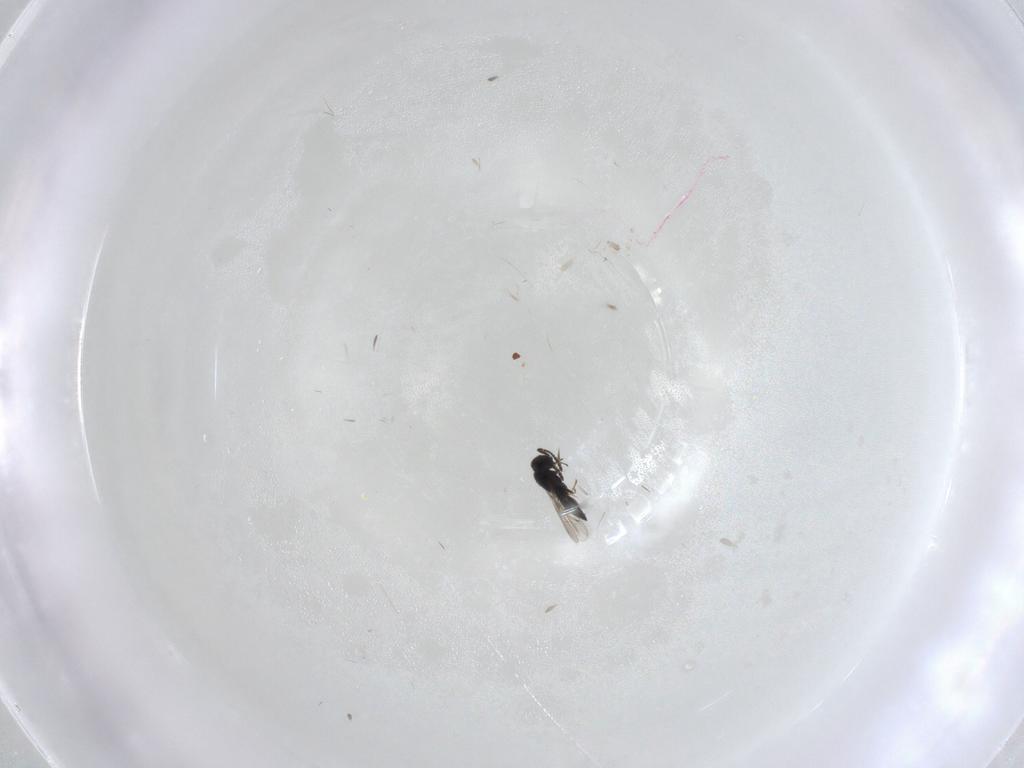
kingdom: Animalia
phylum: Arthropoda
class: Insecta
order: Hymenoptera
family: Scelionidae
